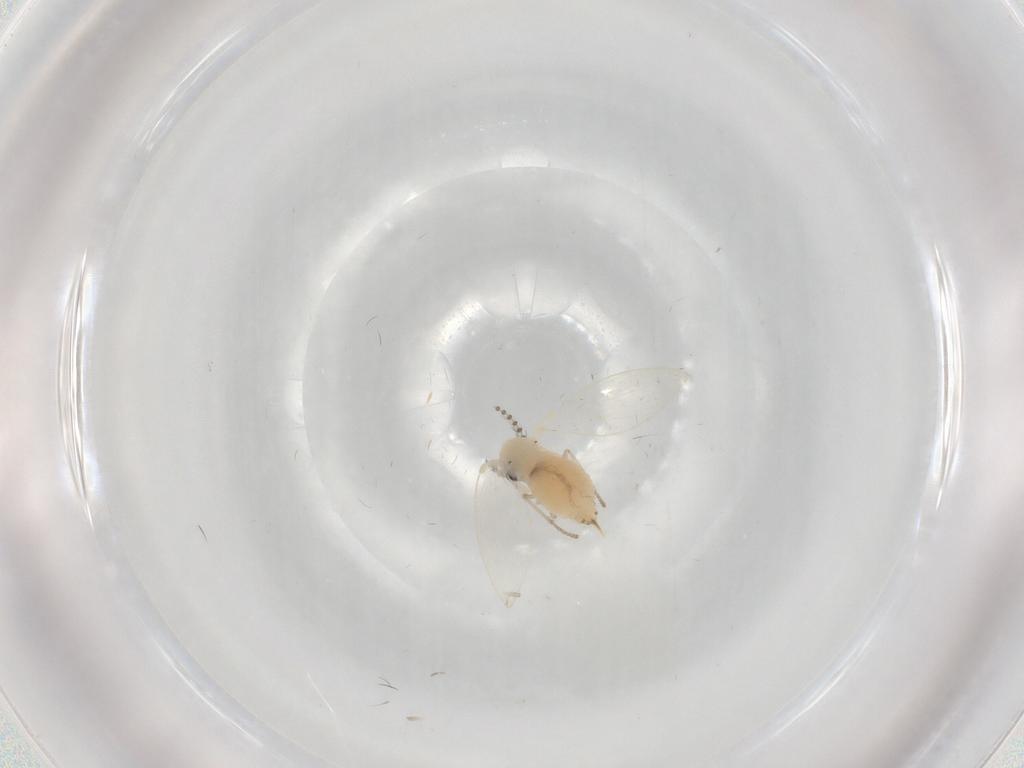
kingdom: Animalia
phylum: Arthropoda
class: Insecta
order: Diptera
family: Psychodidae
